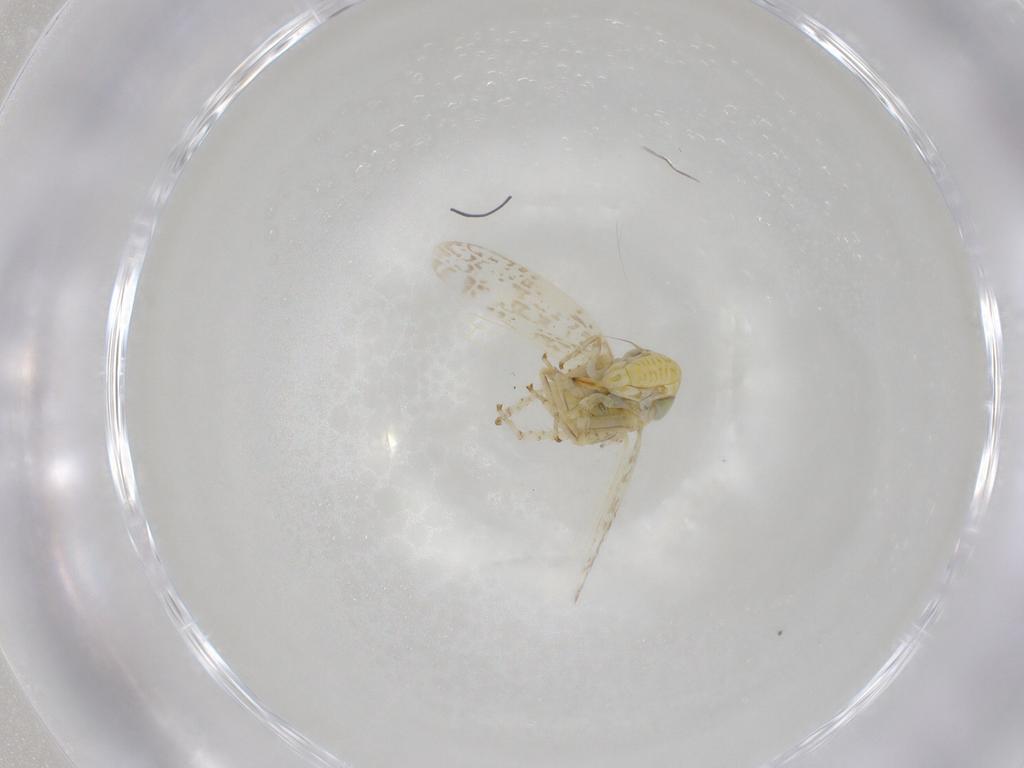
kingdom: Animalia
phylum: Arthropoda
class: Insecta
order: Hemiptera
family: Cicadellidae
